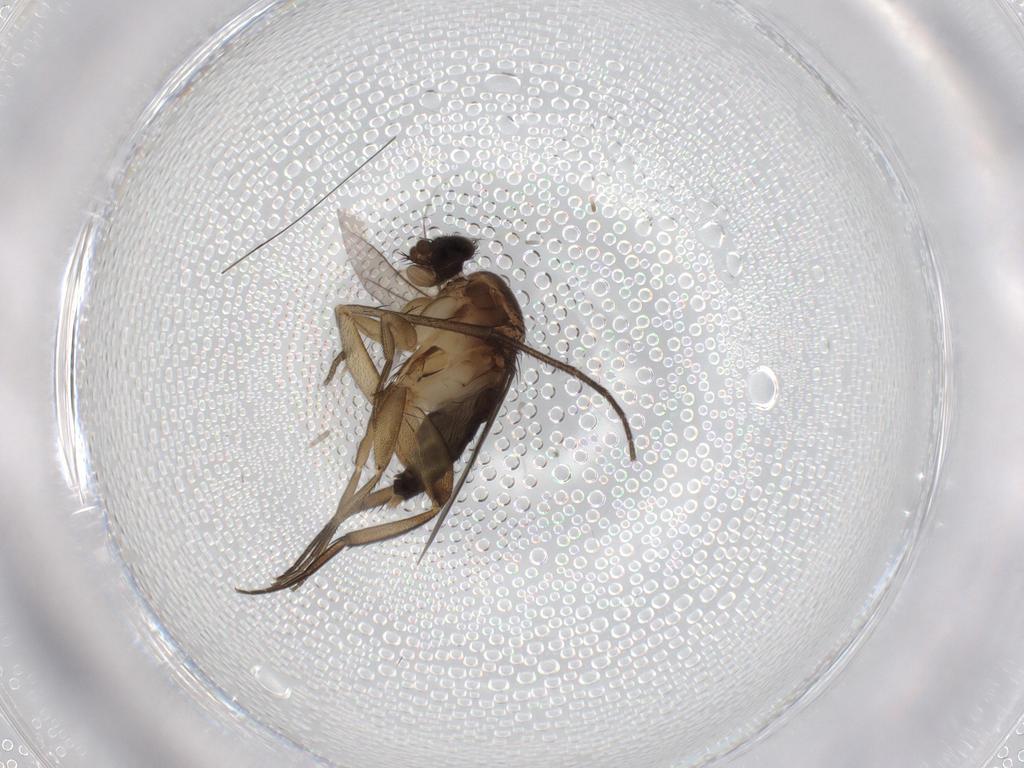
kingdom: Animalia
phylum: Arthropoda
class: Insecta
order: Diptera
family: Phoridae
